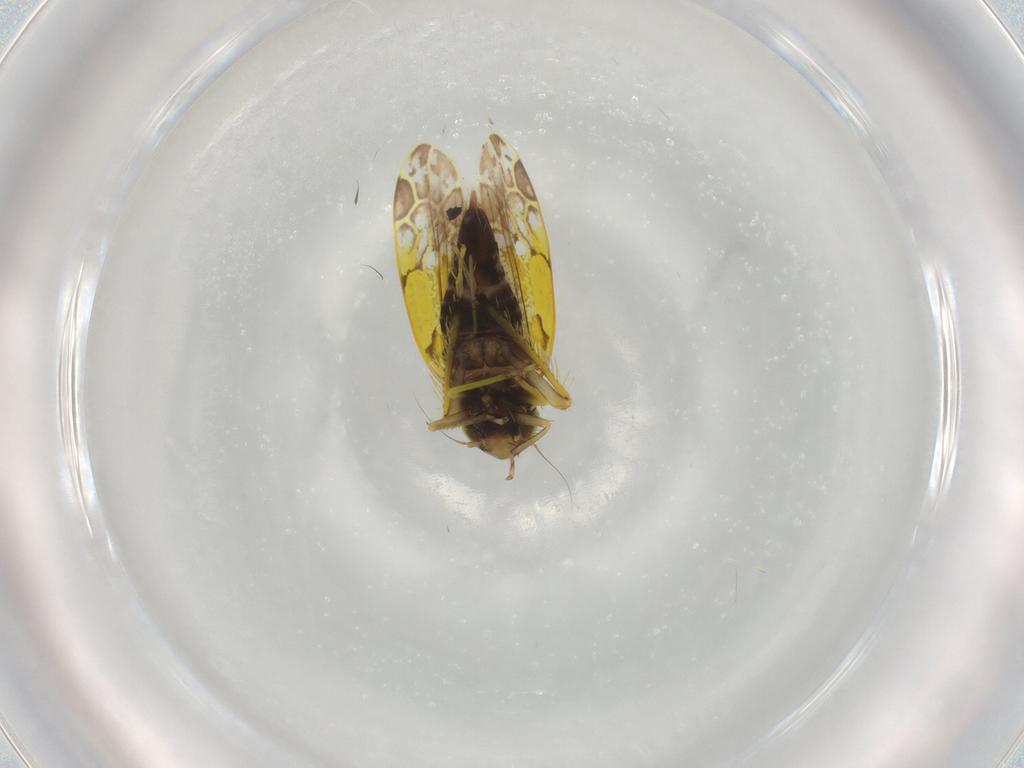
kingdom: Animalia
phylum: Arthropoda
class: Insecta
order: Hemiptera
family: Cicadellidae
